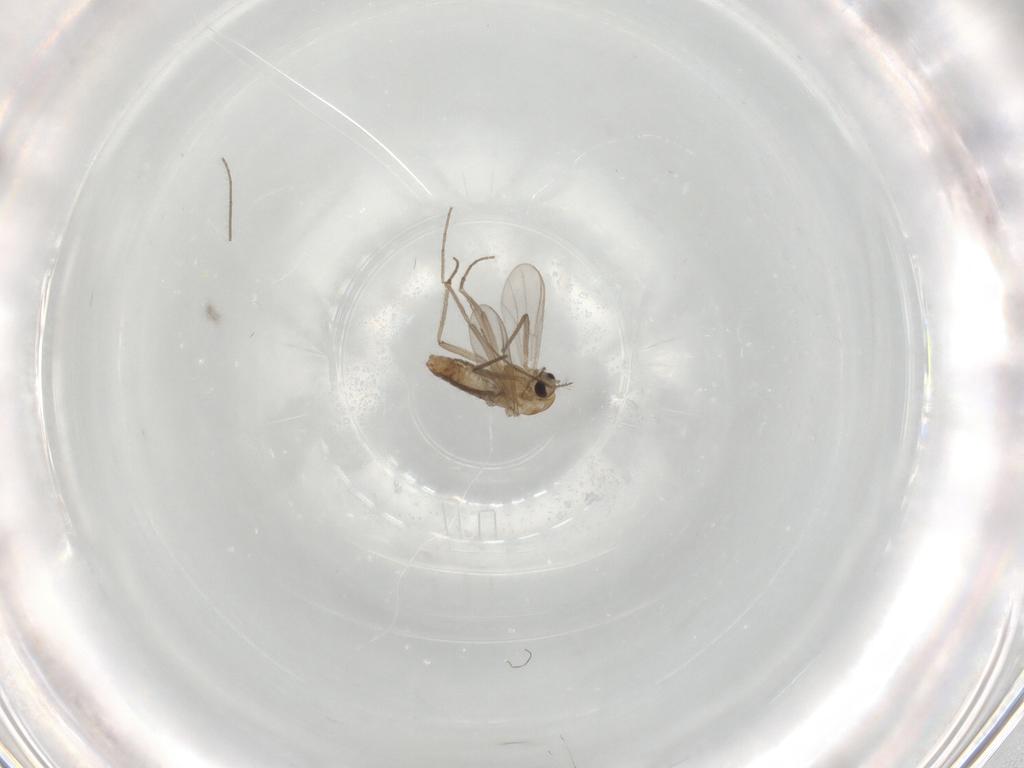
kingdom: Animalia
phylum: Arthropoda
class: Insecta
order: Diptera
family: Chironomidae
